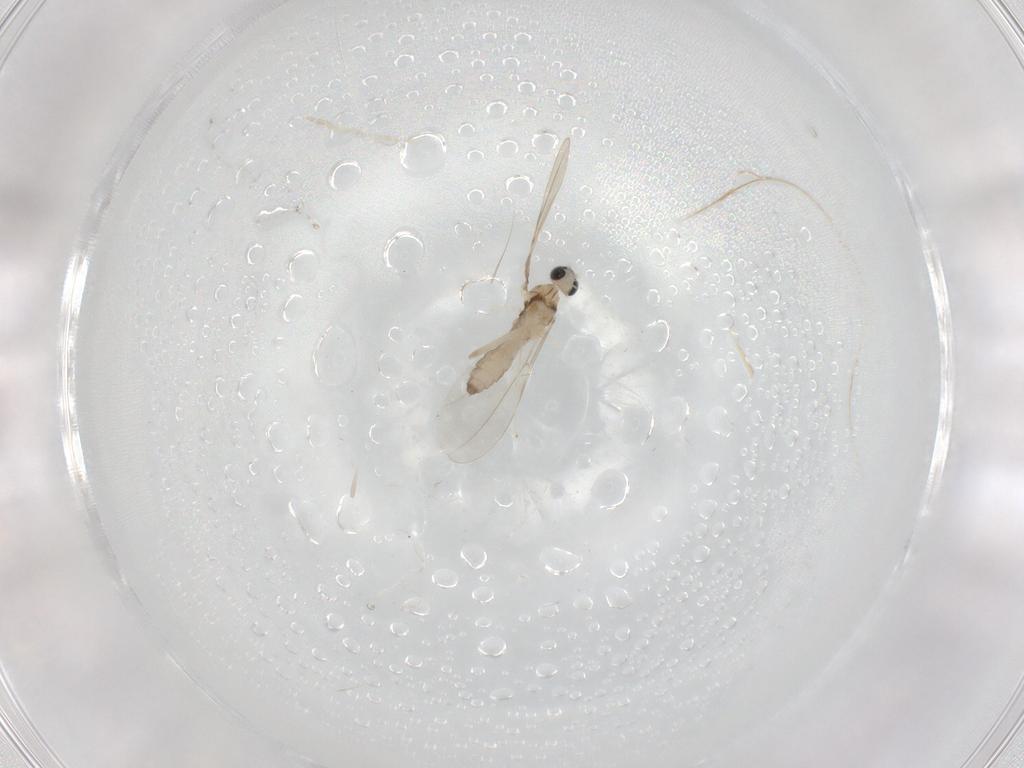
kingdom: Animalia
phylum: Arthropoda
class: Insecta
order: Diptera
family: Cecidomyiidae
